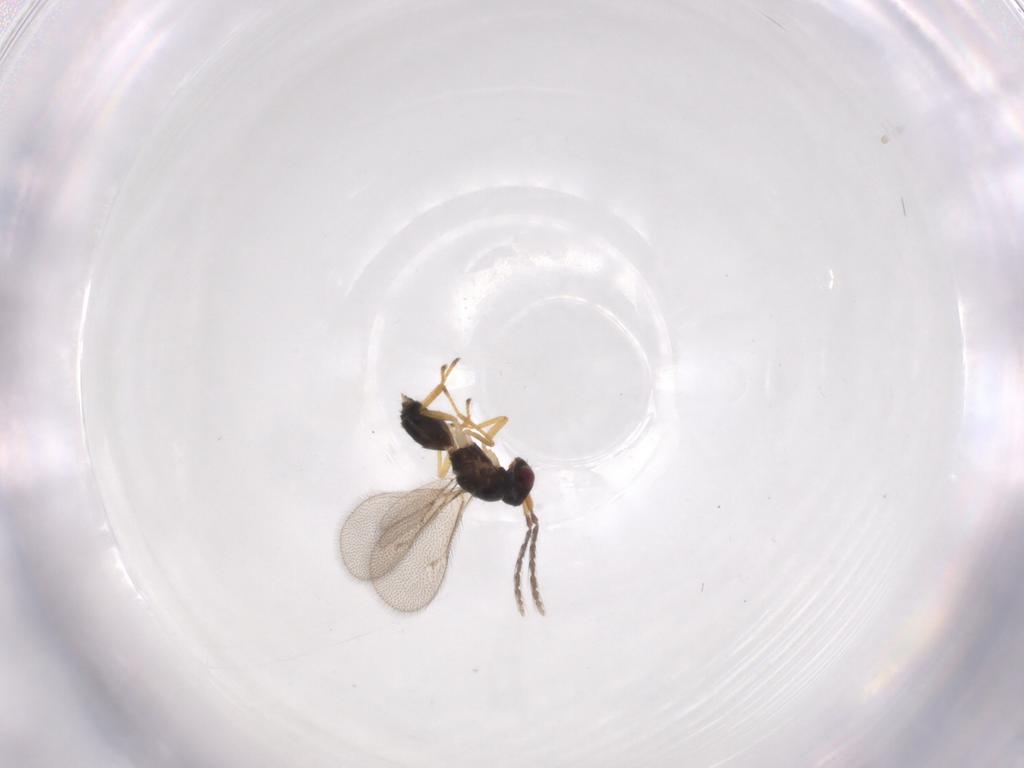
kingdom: Animalia
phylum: Arthropoda
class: Insecta
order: Hymenoptera
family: Eulophidae
